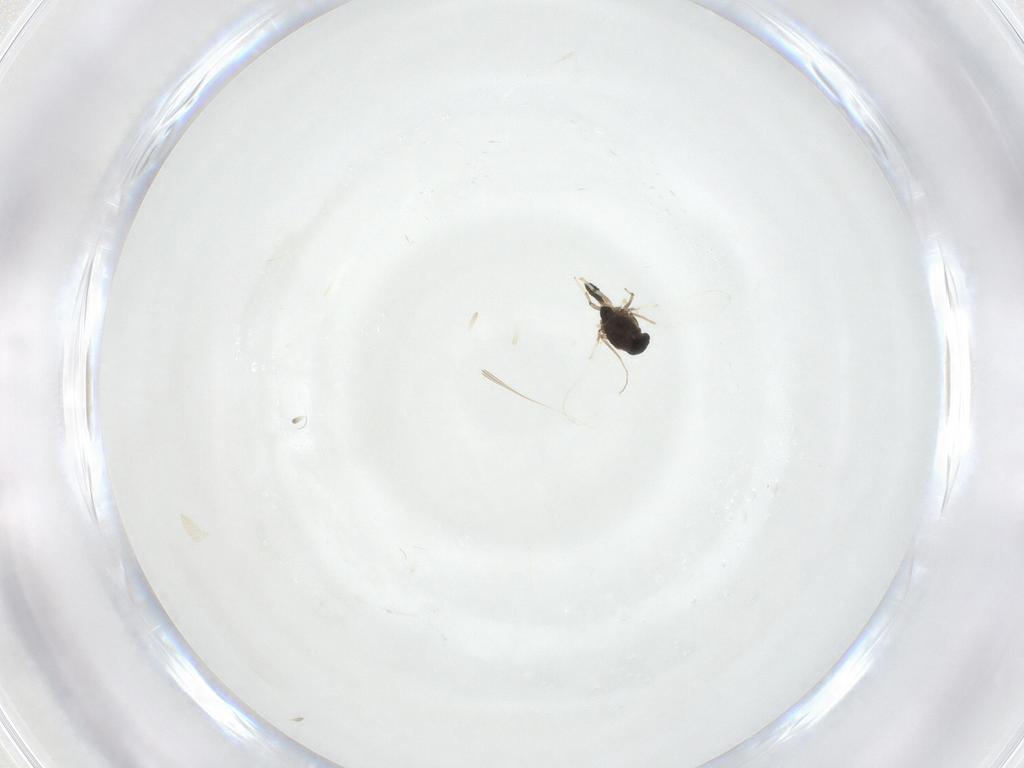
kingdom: Animalia
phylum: Arthropoda
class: Insecta
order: Diptera
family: Chironomidae
